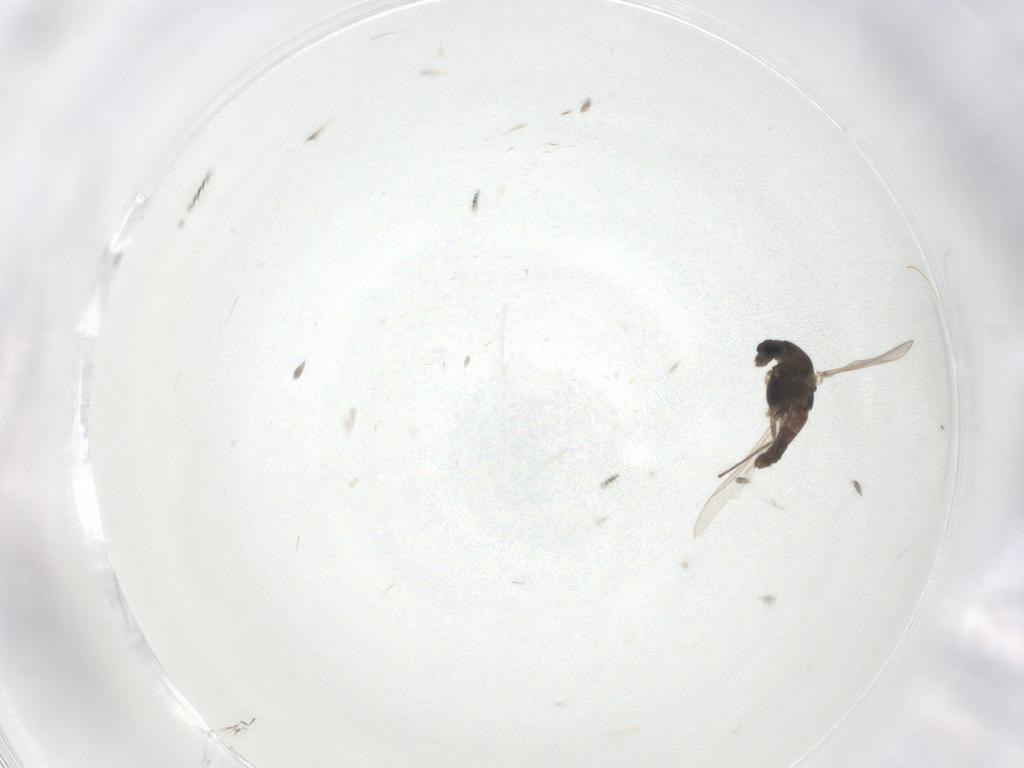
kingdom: Animalia
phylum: Arthropoda
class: Insecta
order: Diptera
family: Chironomidae
